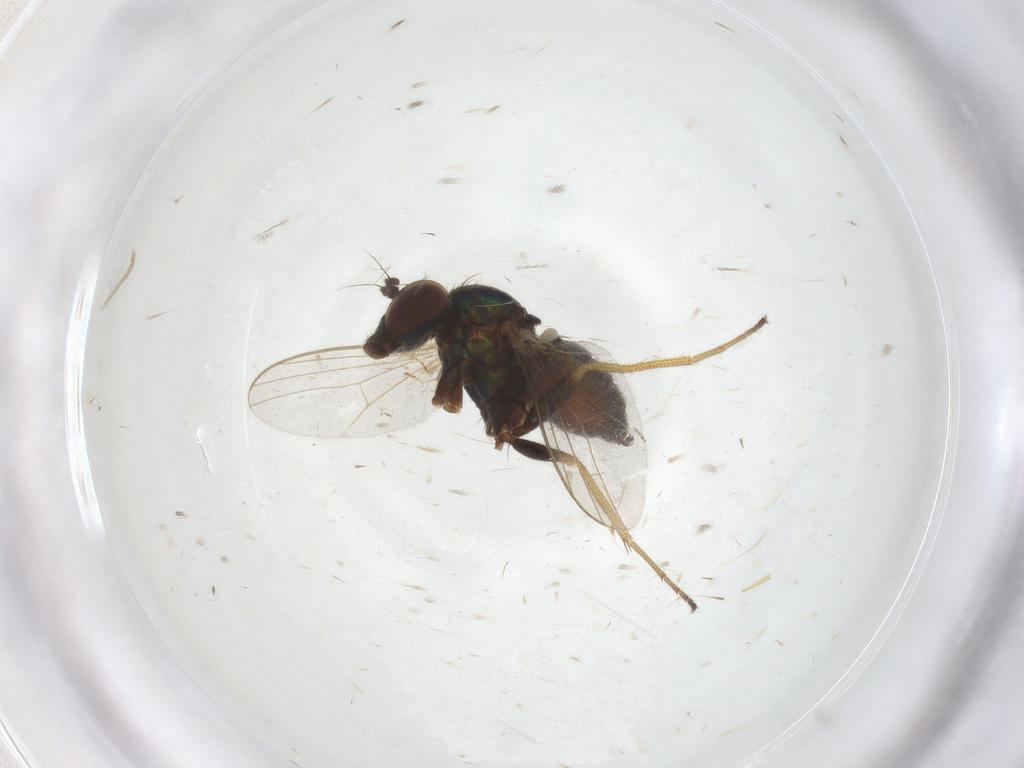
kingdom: Animalia
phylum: Arthropoda
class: Insecta
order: Diptera
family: Dolichopodidae
